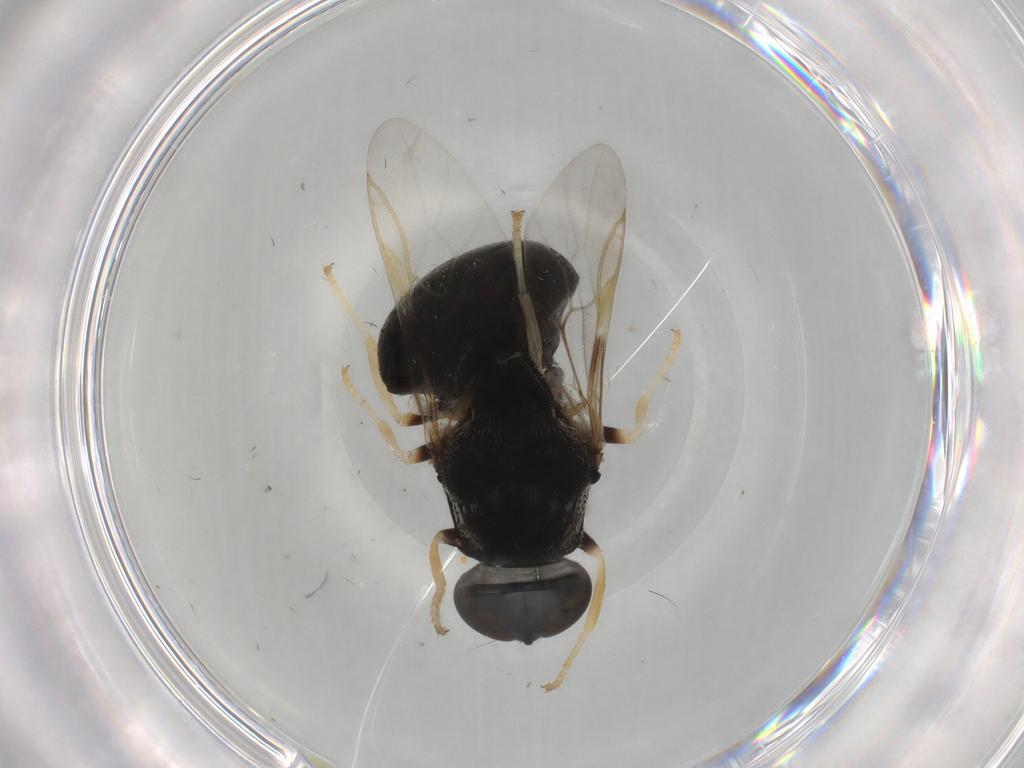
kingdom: Animalia
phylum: Arthropoda
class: Insecta
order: Diptera
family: Stratiomyidae
